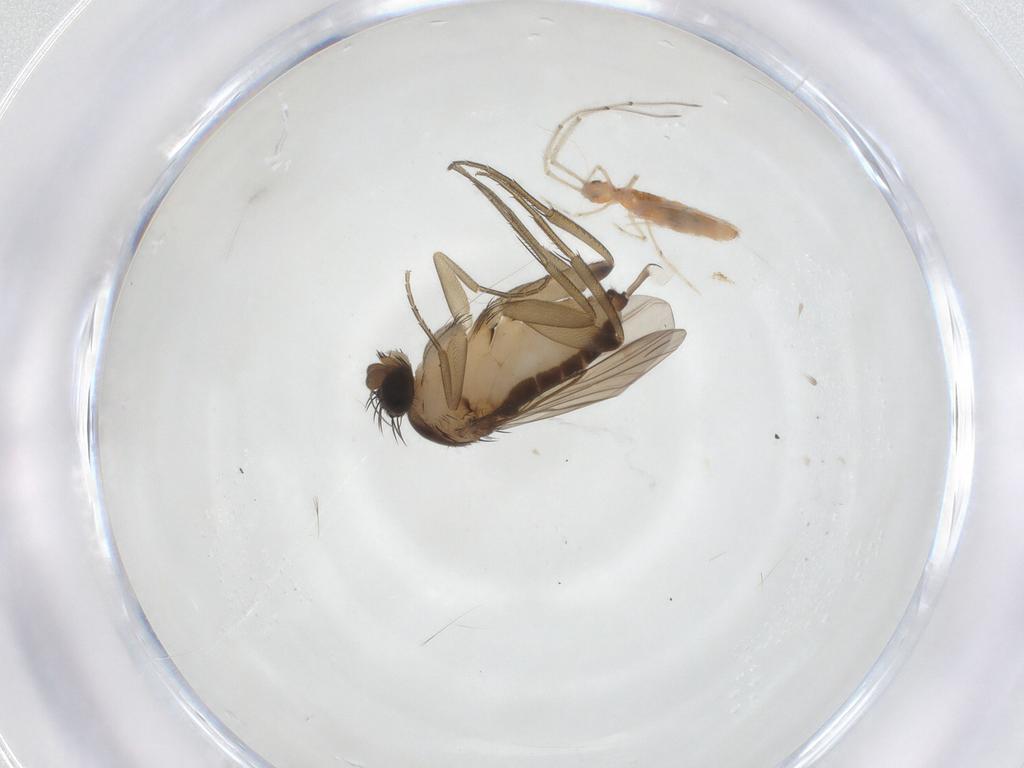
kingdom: Animalia
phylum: Arthropoda
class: Insecta
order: Diptera
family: Phoridae
